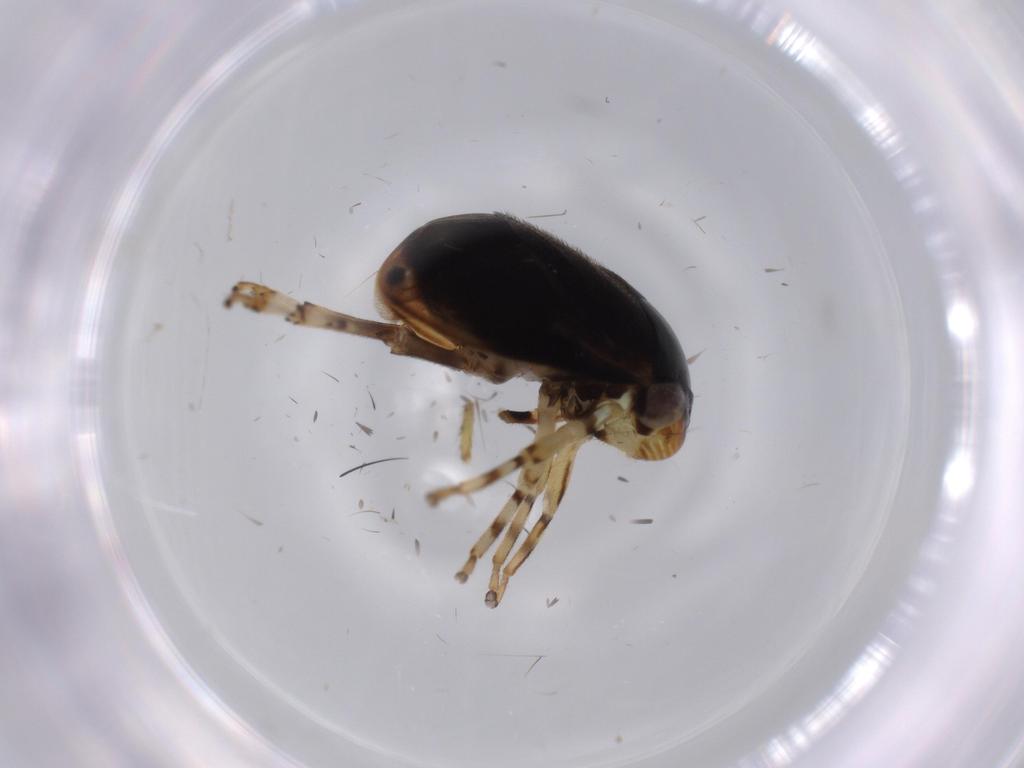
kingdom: Animalia
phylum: Arthropoda
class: Insecta
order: Hemiptera
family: Clastopteridae
